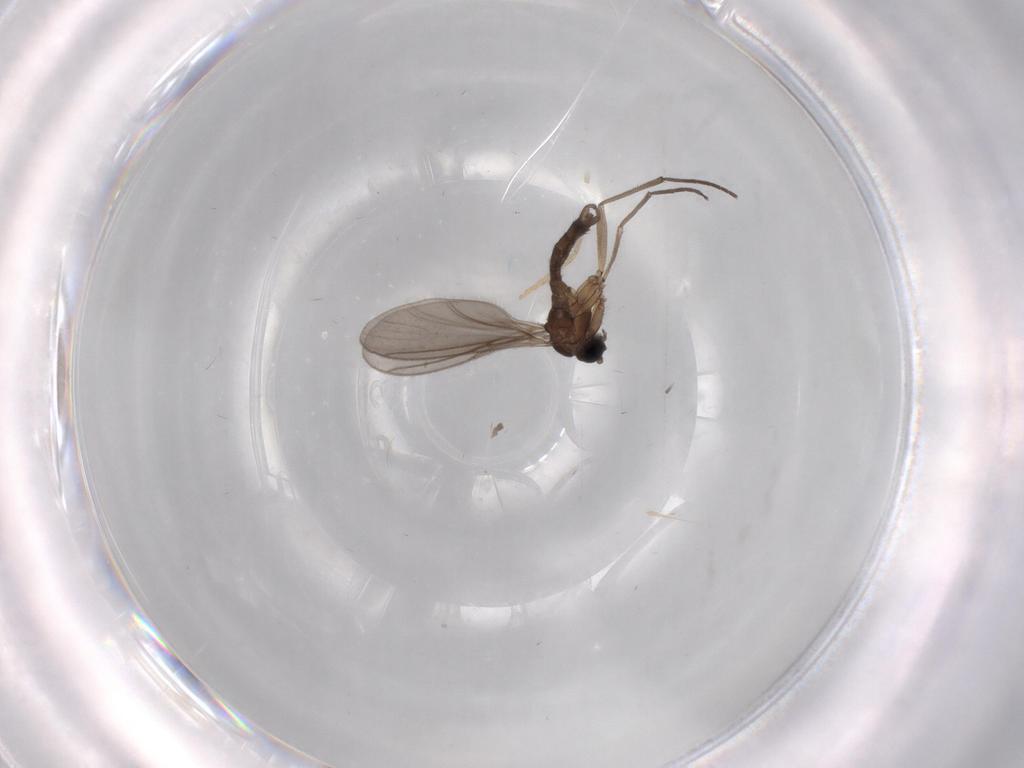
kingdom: Animalia
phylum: Arthropoda
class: Insecta
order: Diptera
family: Sciaridae
